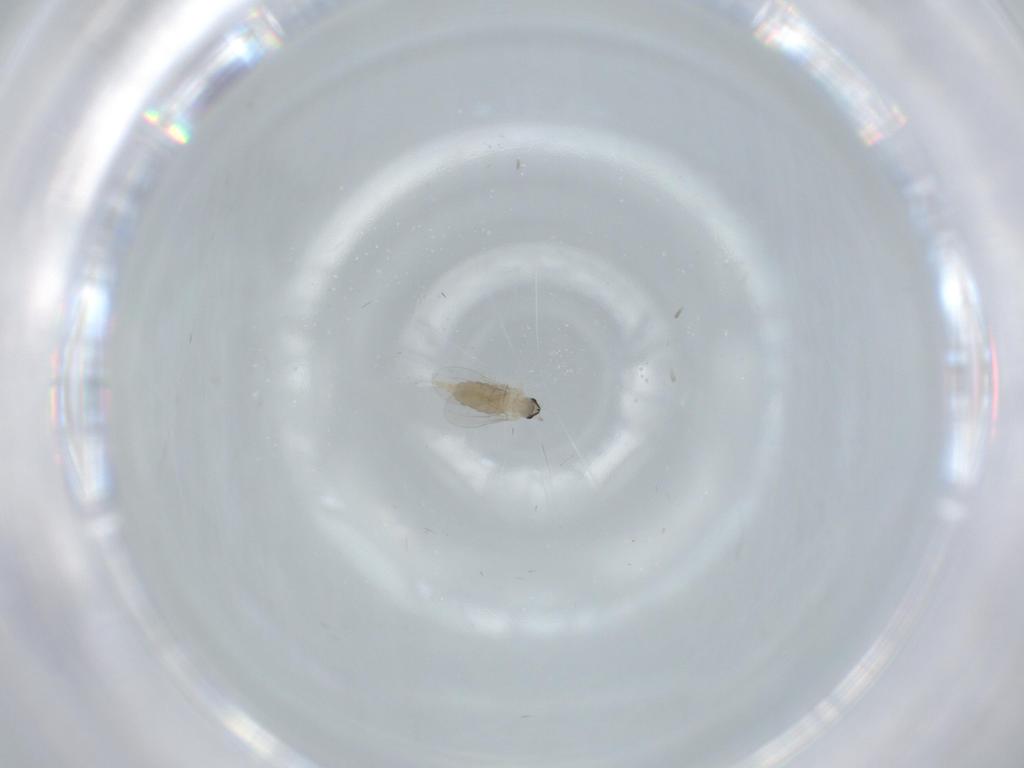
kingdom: Animalia
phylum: Arthropoda
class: Insecta
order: Diptera
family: Cecidomyiidae
